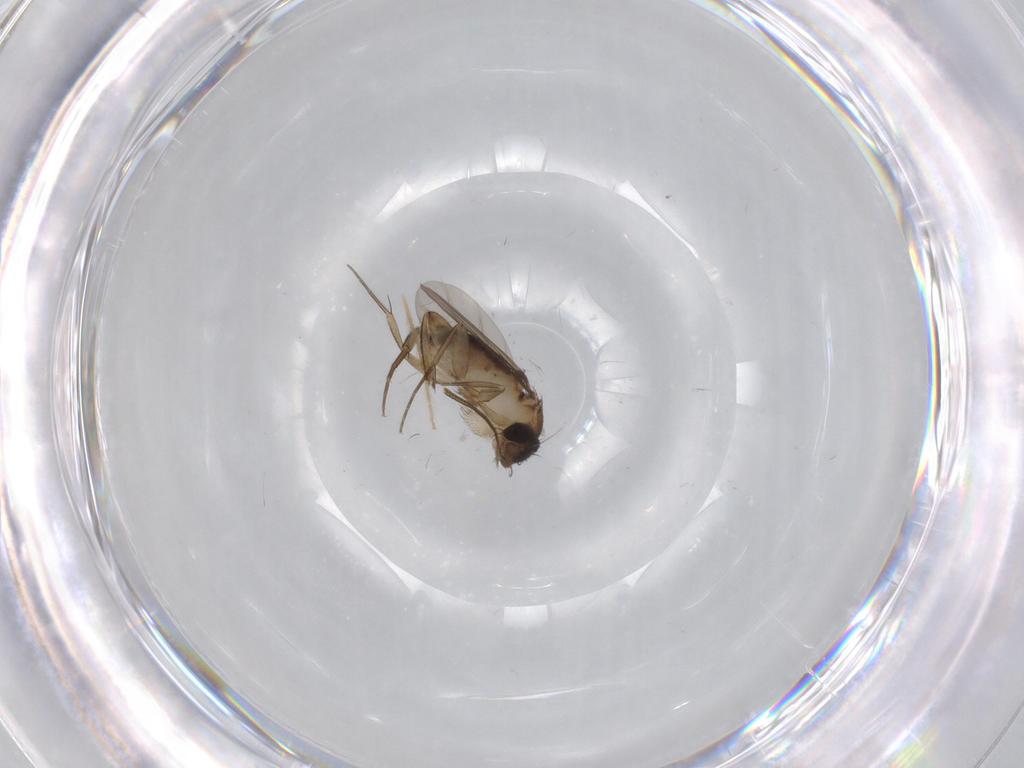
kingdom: Animalia
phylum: Arthropoda
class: Insecta
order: Diptera
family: Phoridae
